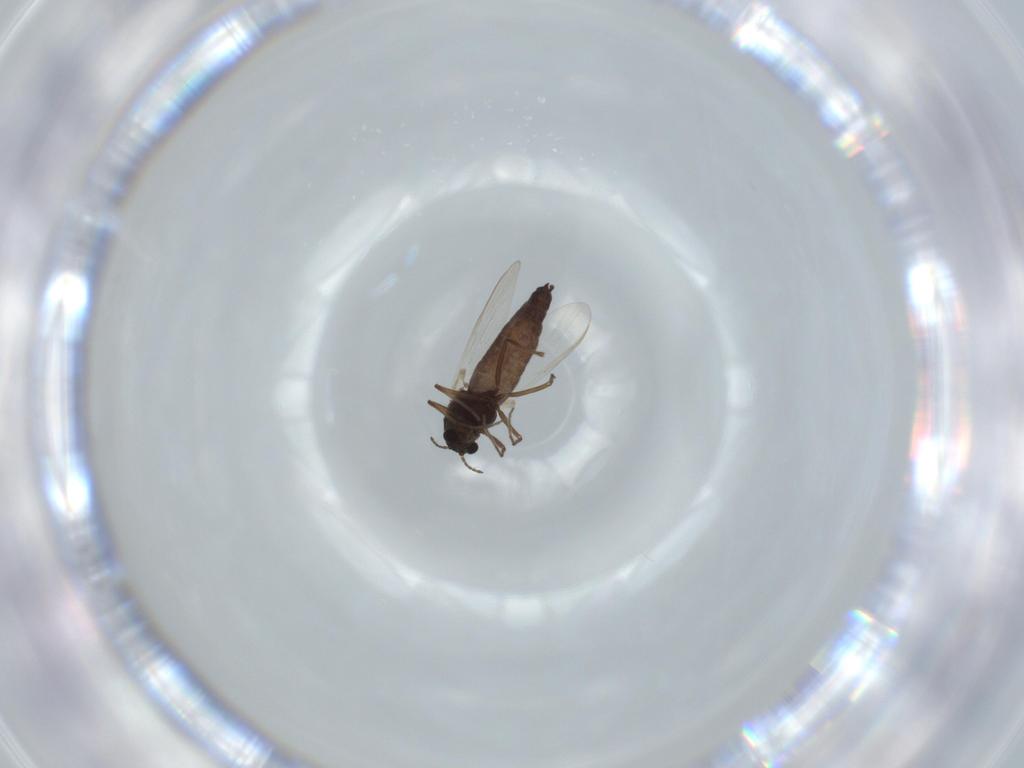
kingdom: Animalia
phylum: Arthropoda
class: Insecta
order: Diptera
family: Chironomidae
